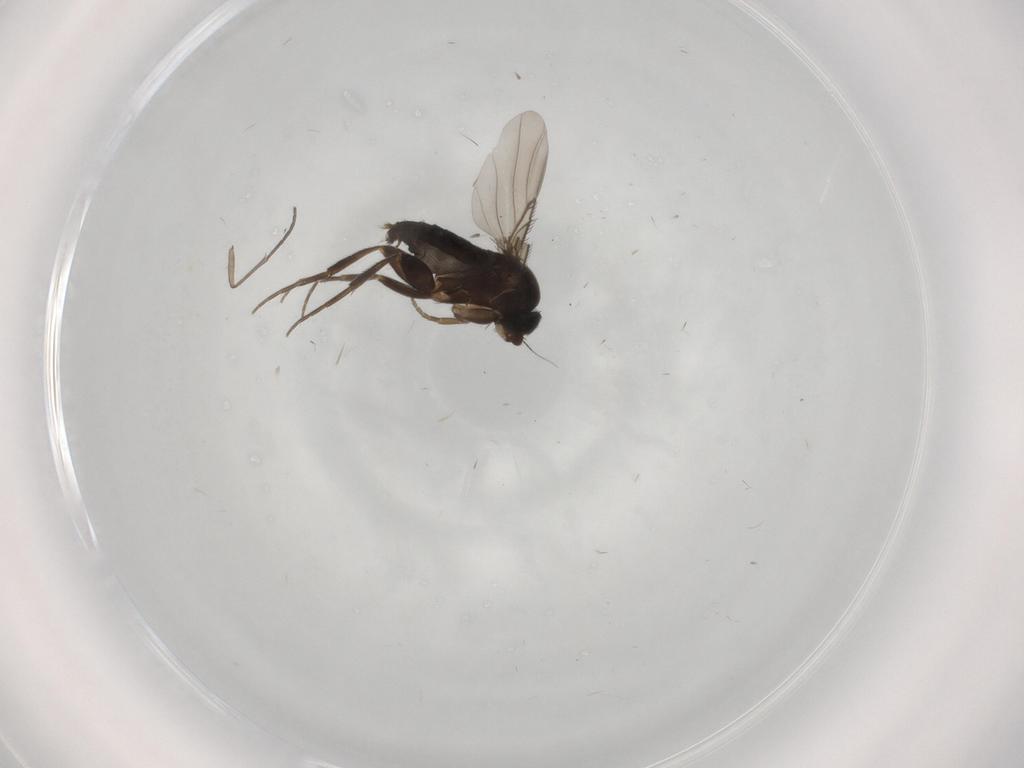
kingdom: Animalia
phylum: Arthropoda
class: Insecta
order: Diptera
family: Phoridae
